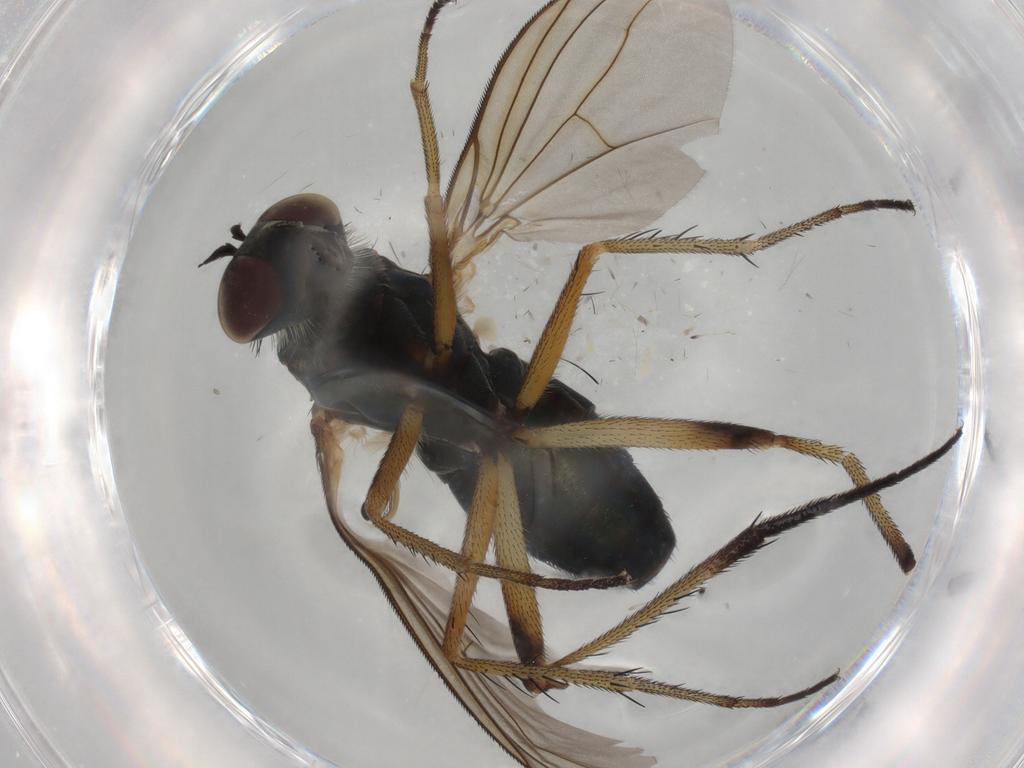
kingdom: Animalia
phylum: Arthropoda
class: Insecta
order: Diptera
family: Dolichopodidae
